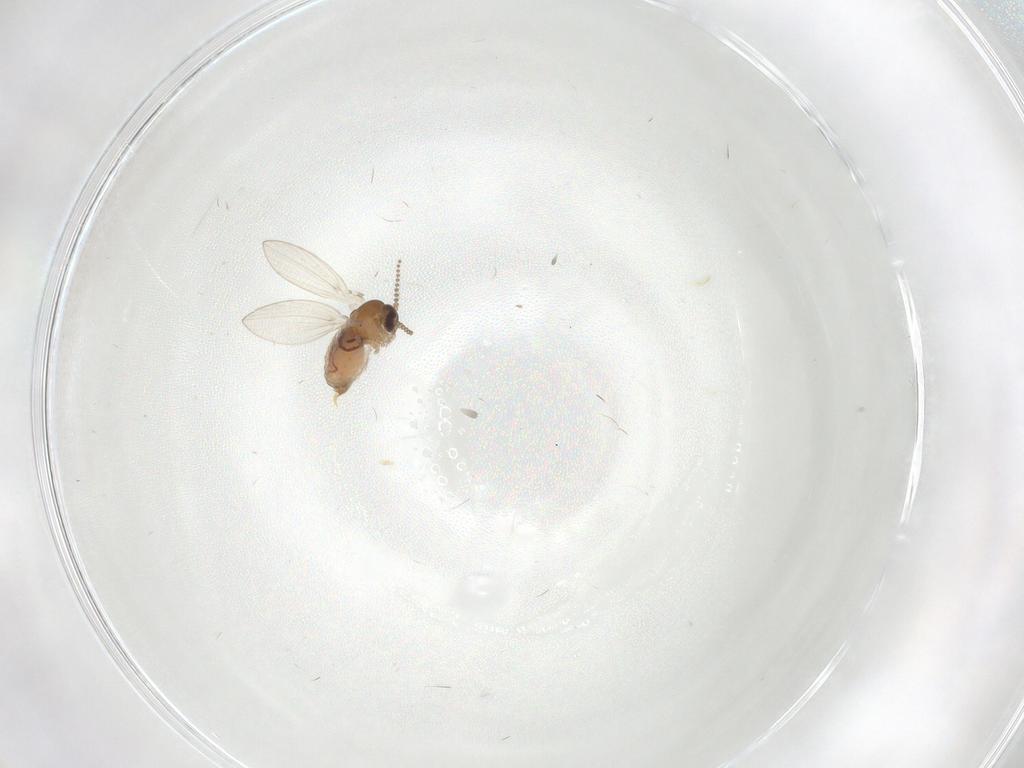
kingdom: Animalia
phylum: Arthropoda
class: Insecta
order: Diptera
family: Psychodidae
